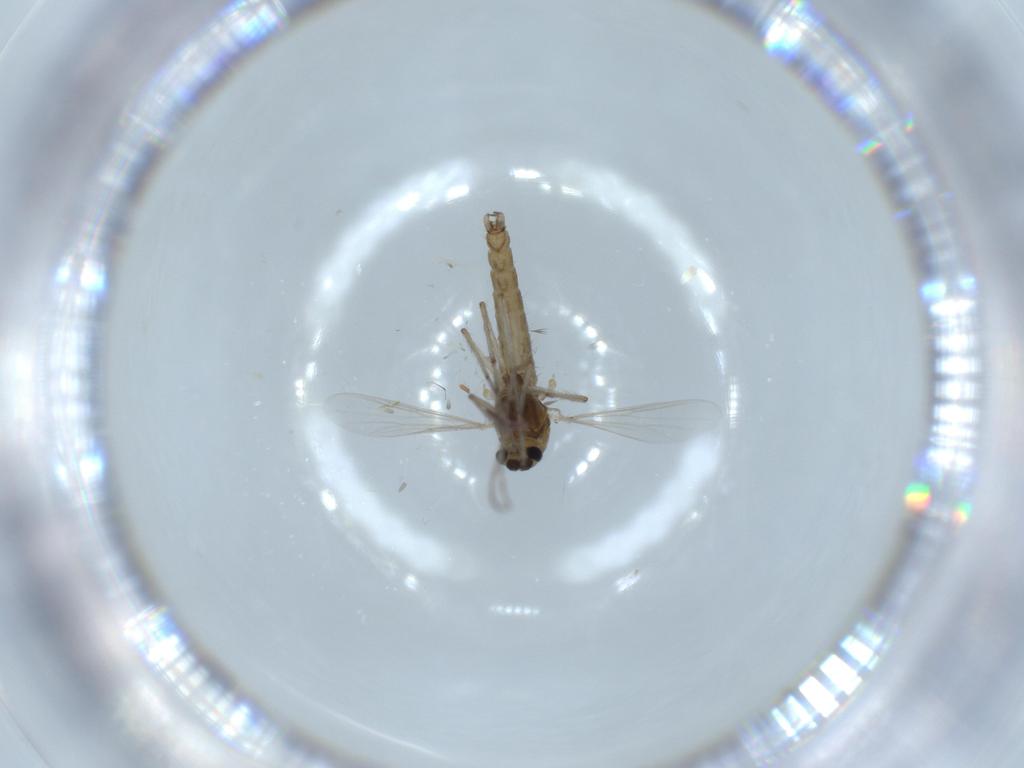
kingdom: Animalia
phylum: Arthropoda
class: Insecta
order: Diptera
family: Chironomidae
